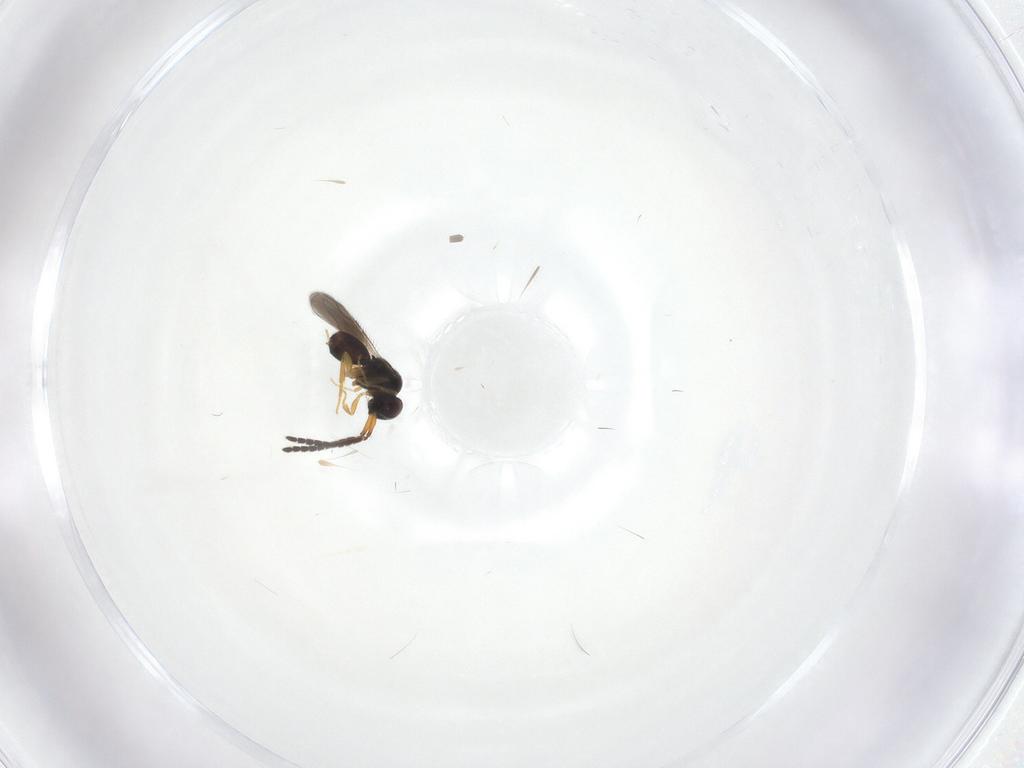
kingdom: Animalia
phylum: Arthropoda
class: Insecta
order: Hymenoptera
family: Ceraphronidae
